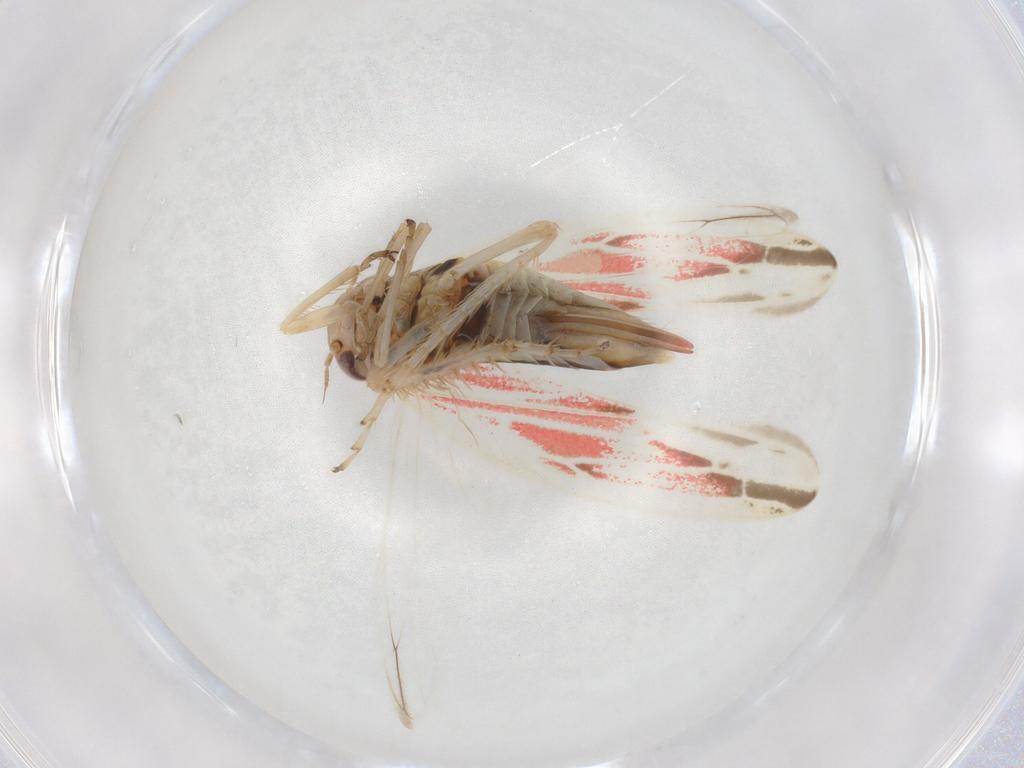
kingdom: Animalia
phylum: Arthropoda
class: Insecta
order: Hemiptera
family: Cicadellidae
